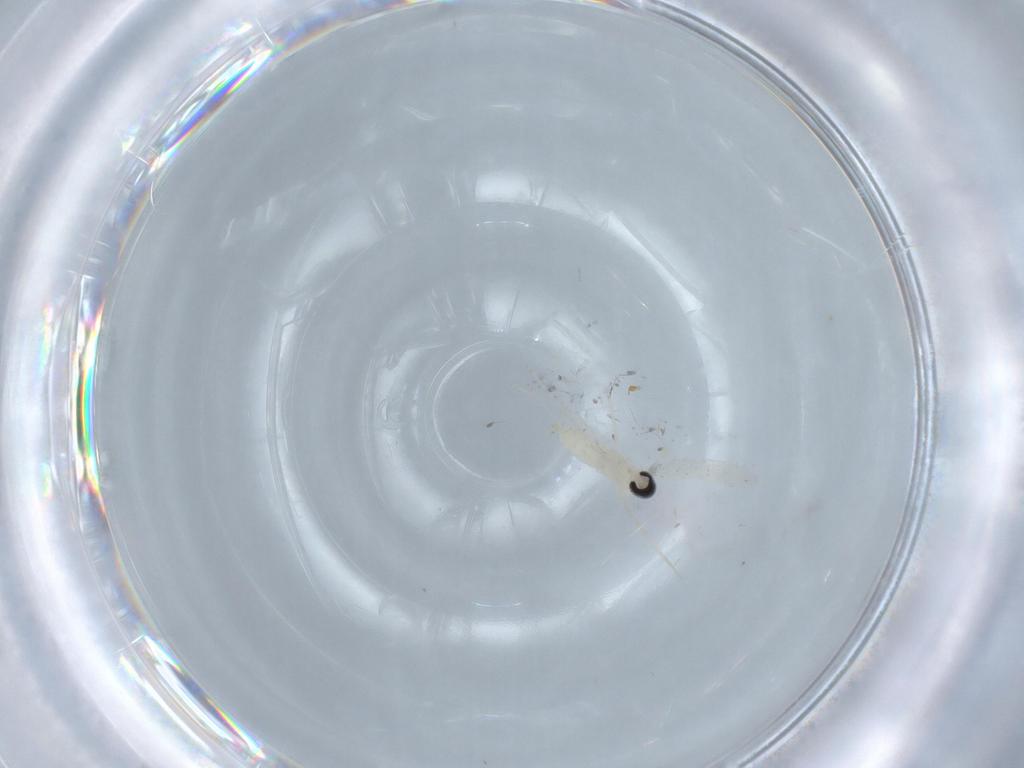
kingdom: Animalia
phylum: Arthropoda
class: Insecta
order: Diptera
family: Cecidomyiidae
